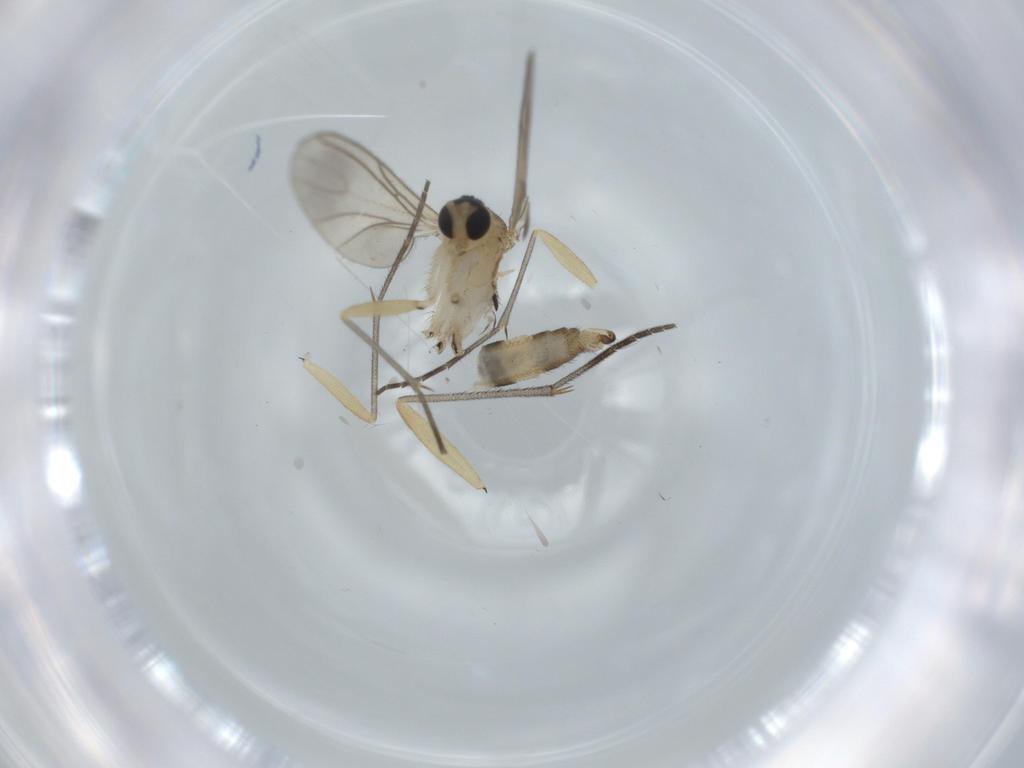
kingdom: Animalia
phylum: Arthropoda
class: Insecta
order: Diptera
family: Sciaridae
